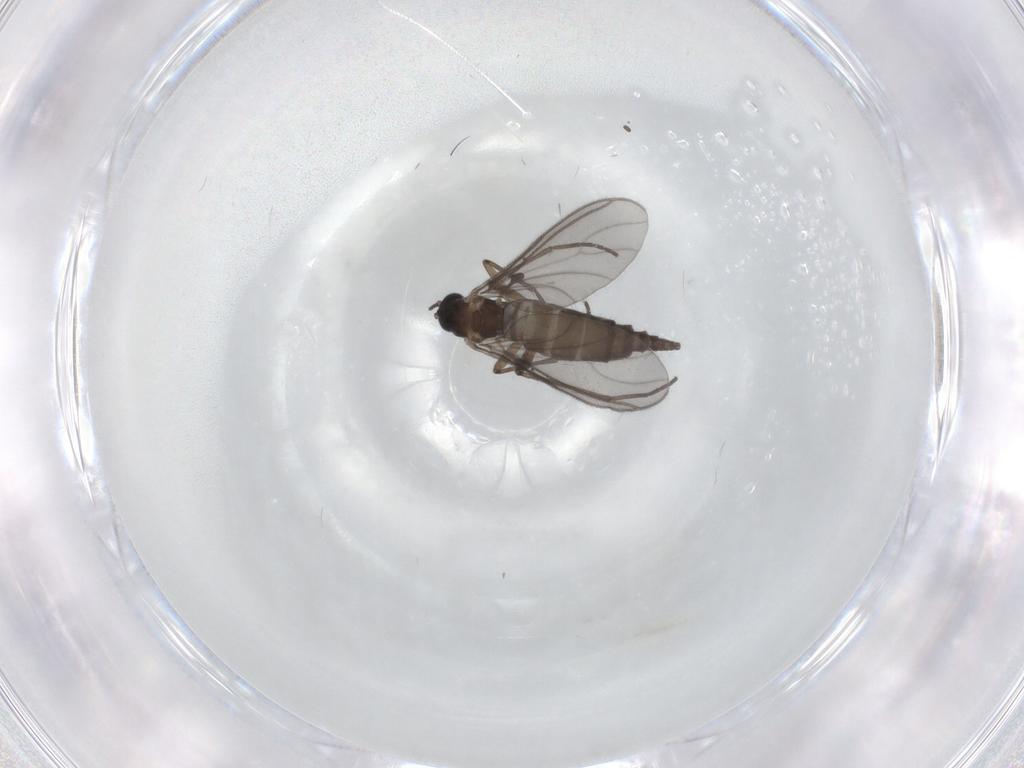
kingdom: Animalia
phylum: Arthropoda
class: Insecta
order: Diptera
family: Sciaridae
